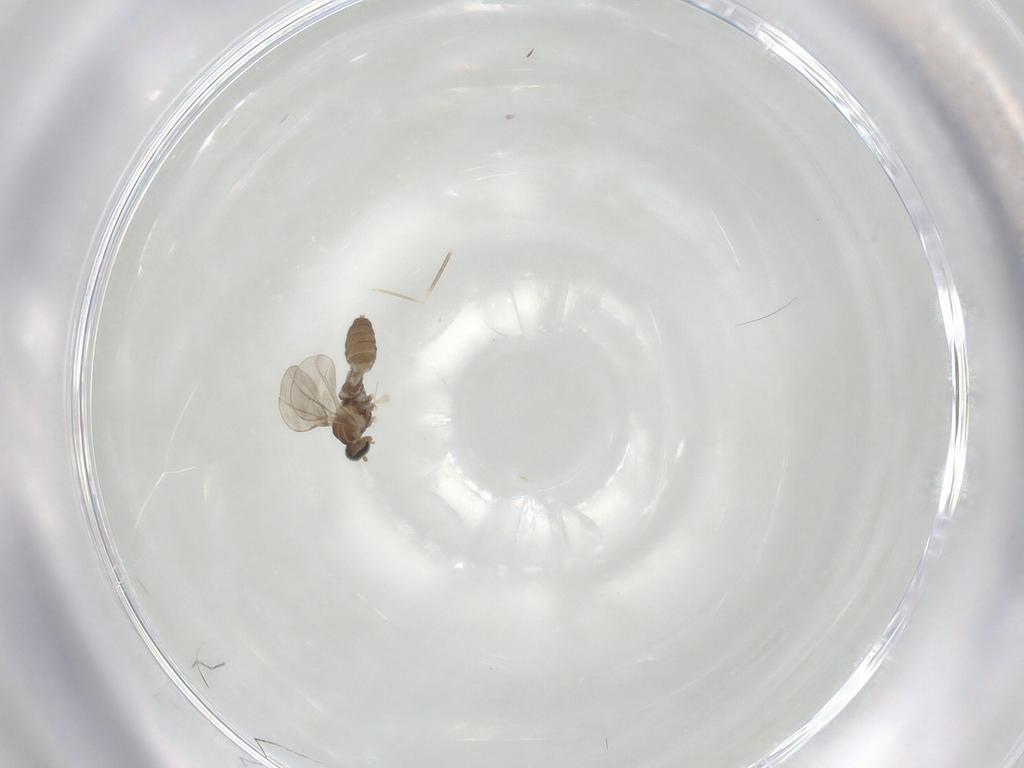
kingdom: Animalia
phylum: Arthropoda
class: Insecta
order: Diptera
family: Cecidomyiidae
